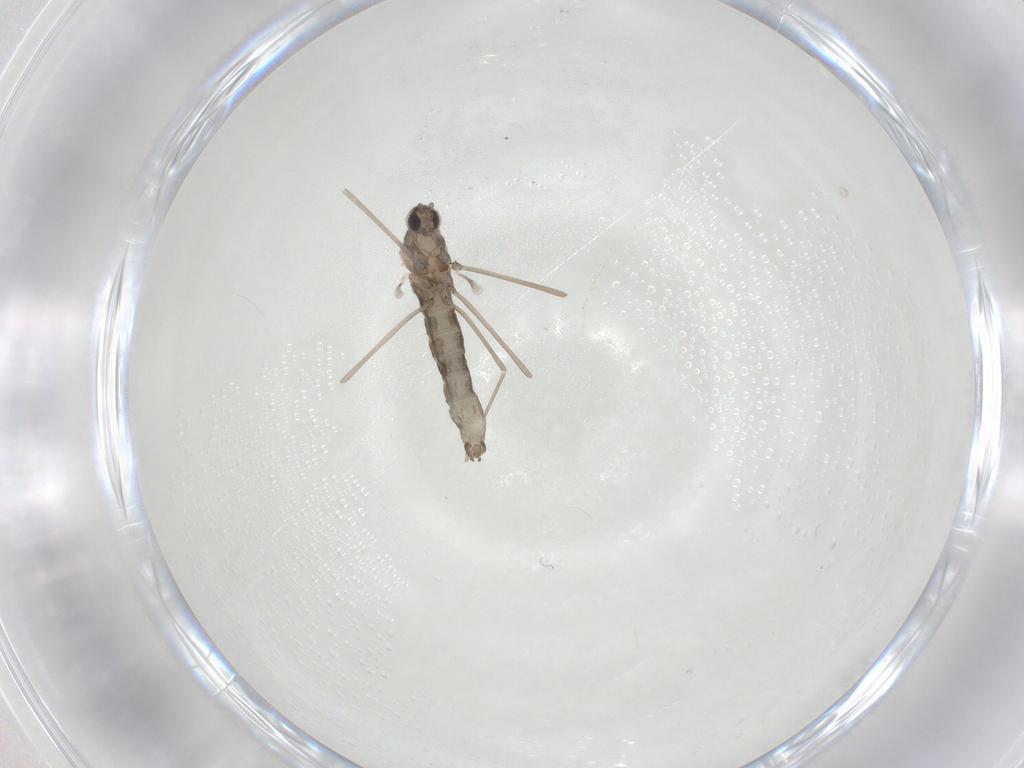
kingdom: Animalia
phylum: Arthropoda
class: Insecta
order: Diptera
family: Cecidomyiidae
